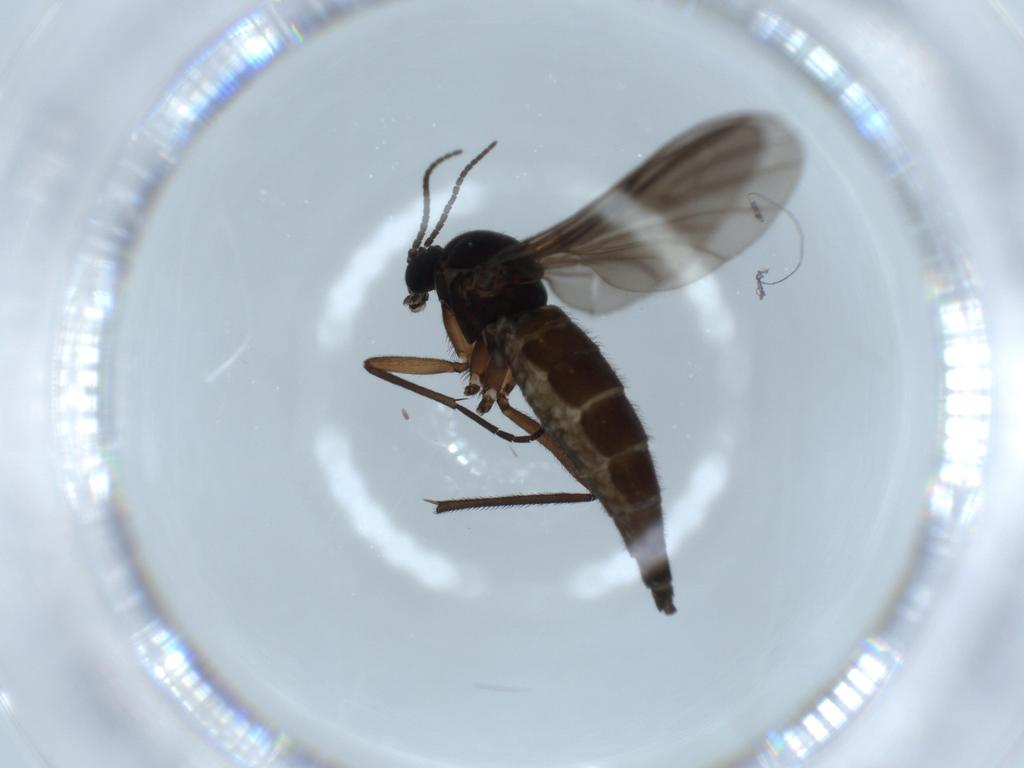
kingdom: Animalia
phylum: Arthropoda
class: Insecta
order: Diptera
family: Sciaridae
